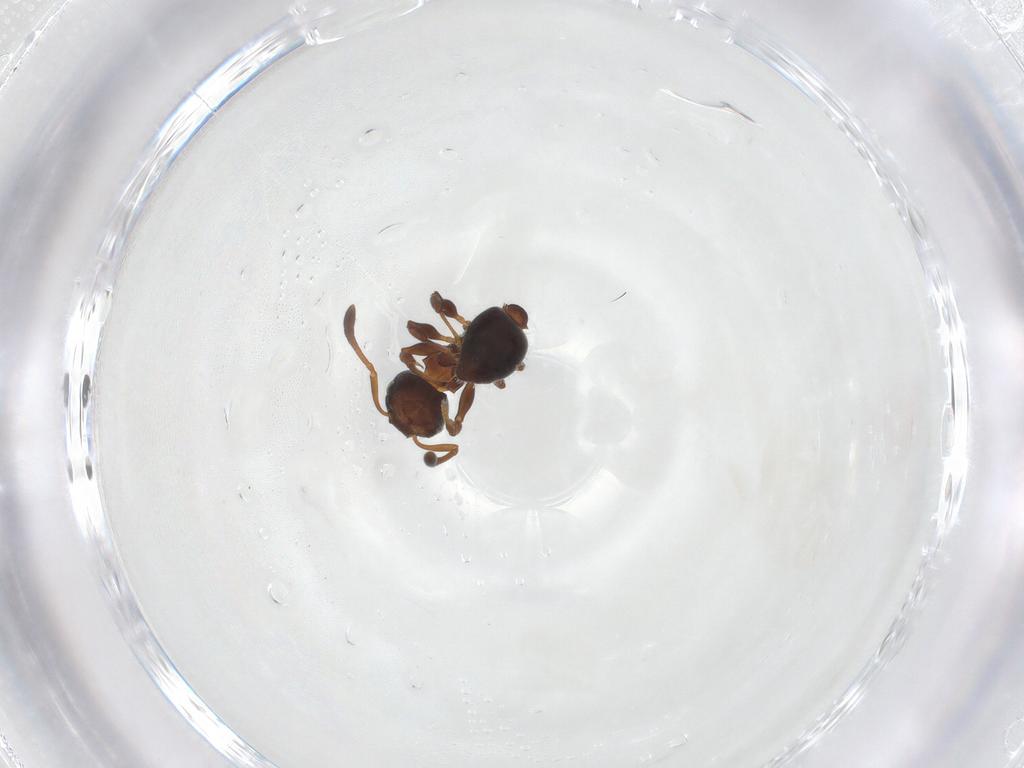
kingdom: Animalia
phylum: Arthropoda
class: Insecta
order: Hymenoptera
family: Formicidae
